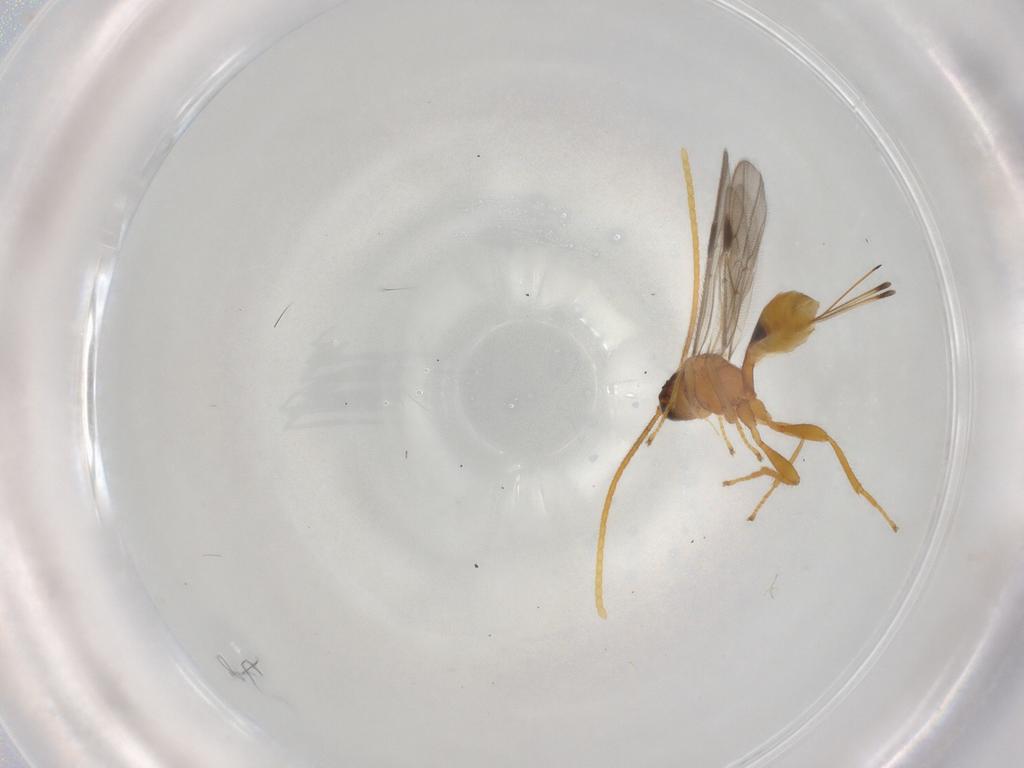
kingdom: Animalia
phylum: Arthropoda
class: Insecta
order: Hymenoptera
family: Braconidae
